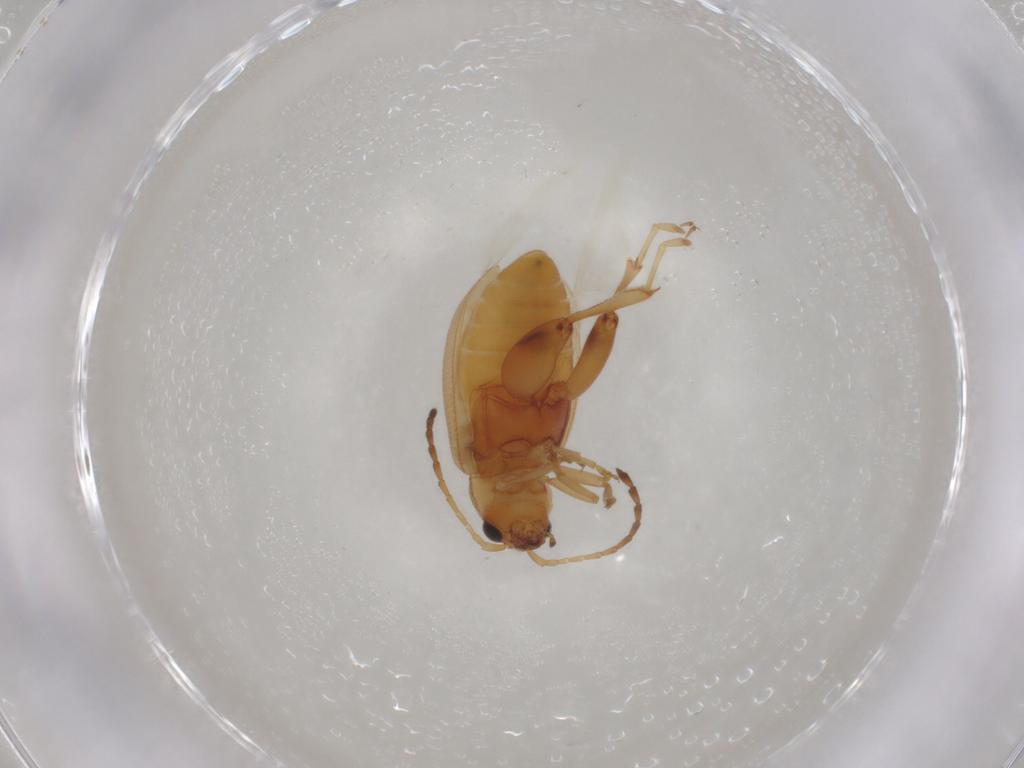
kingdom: Animalia
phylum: Arthropoda
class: Insecta
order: Coleoptera
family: Chrysomelidae
